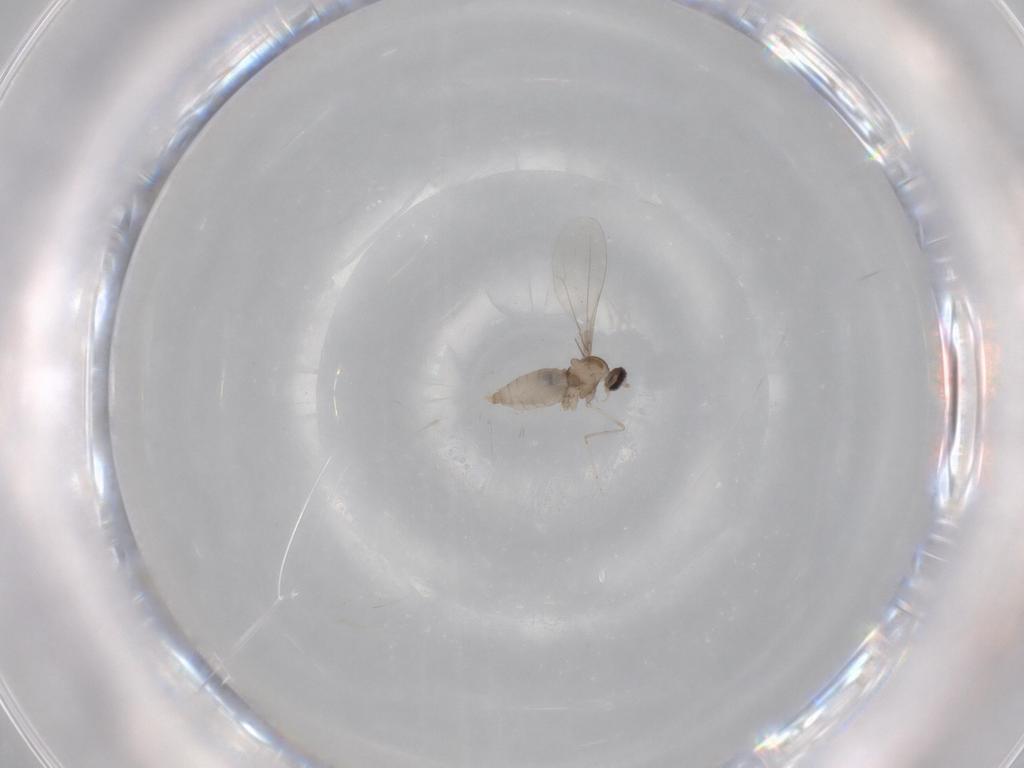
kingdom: Animalia
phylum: Arthropoda
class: Insecta
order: Diptera
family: Cecidomyiidae
